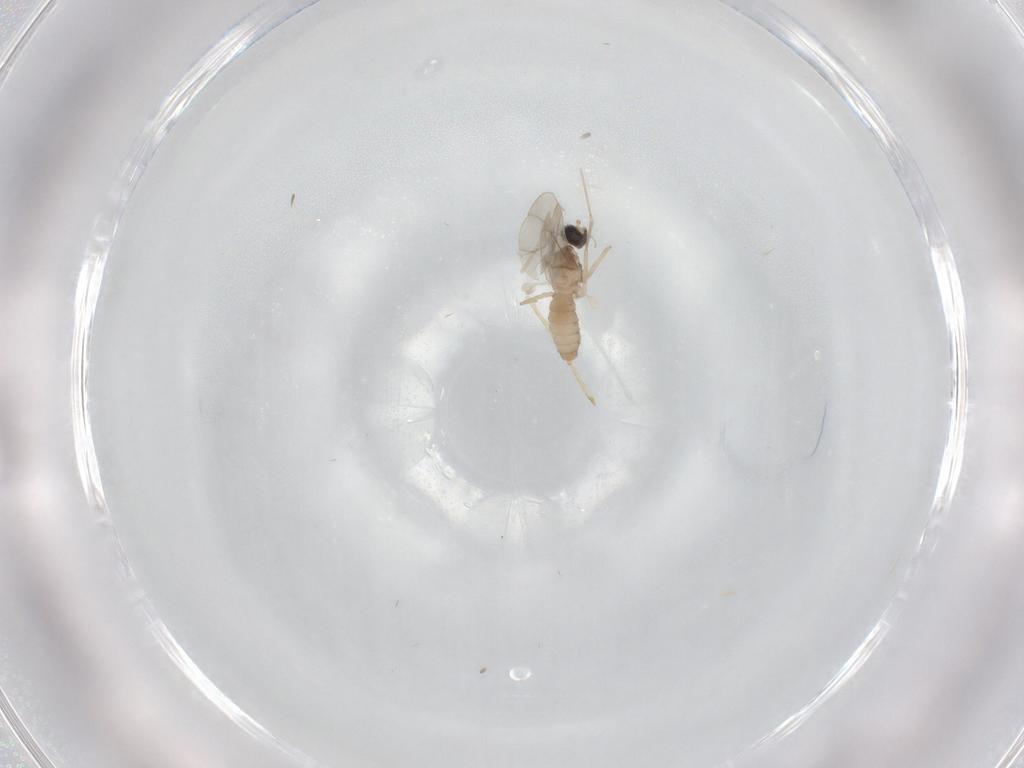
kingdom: Animalia
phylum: Arthropoda
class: Insecta
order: Diptera
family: Cecidomyiidae
